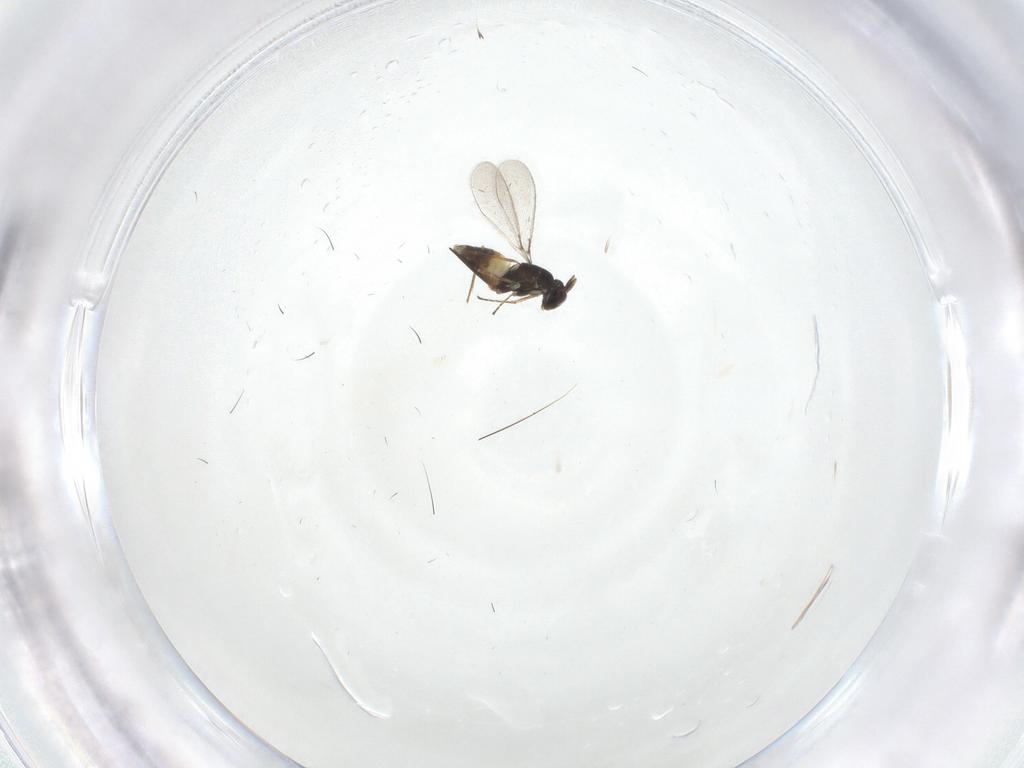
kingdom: Animalia
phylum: Arthropoda
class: Insecta
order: Hymenoptera
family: Mymaridae
